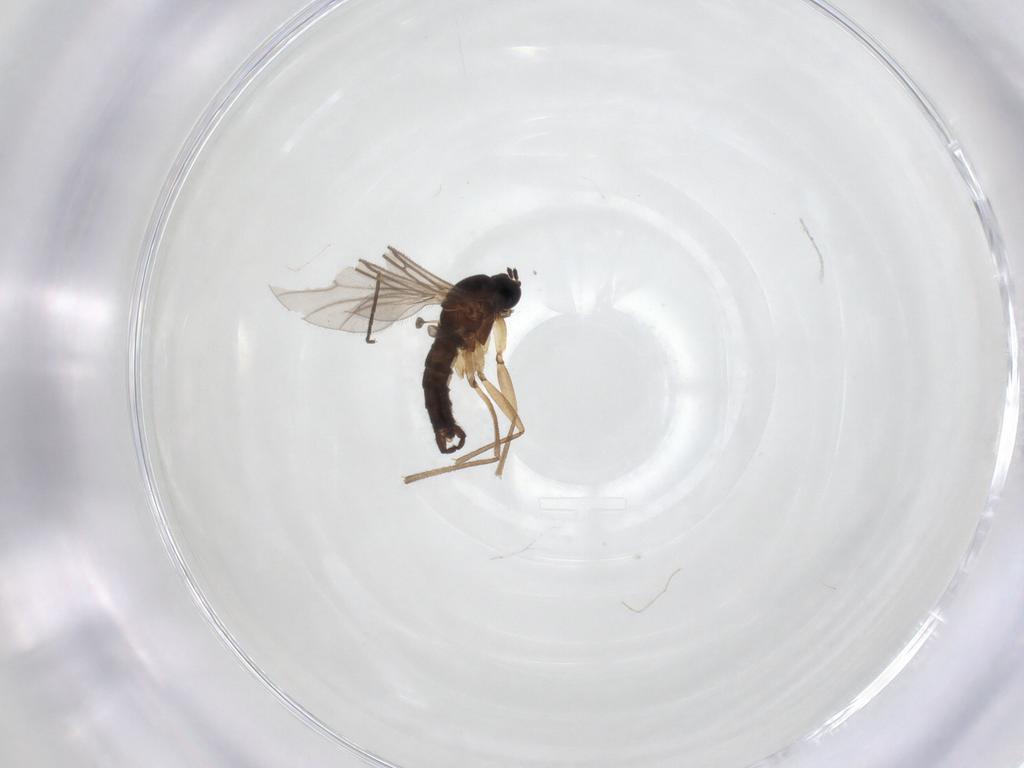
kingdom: Animalia
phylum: Arthropoda
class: Insecta
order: Diptera
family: Sciaridae
